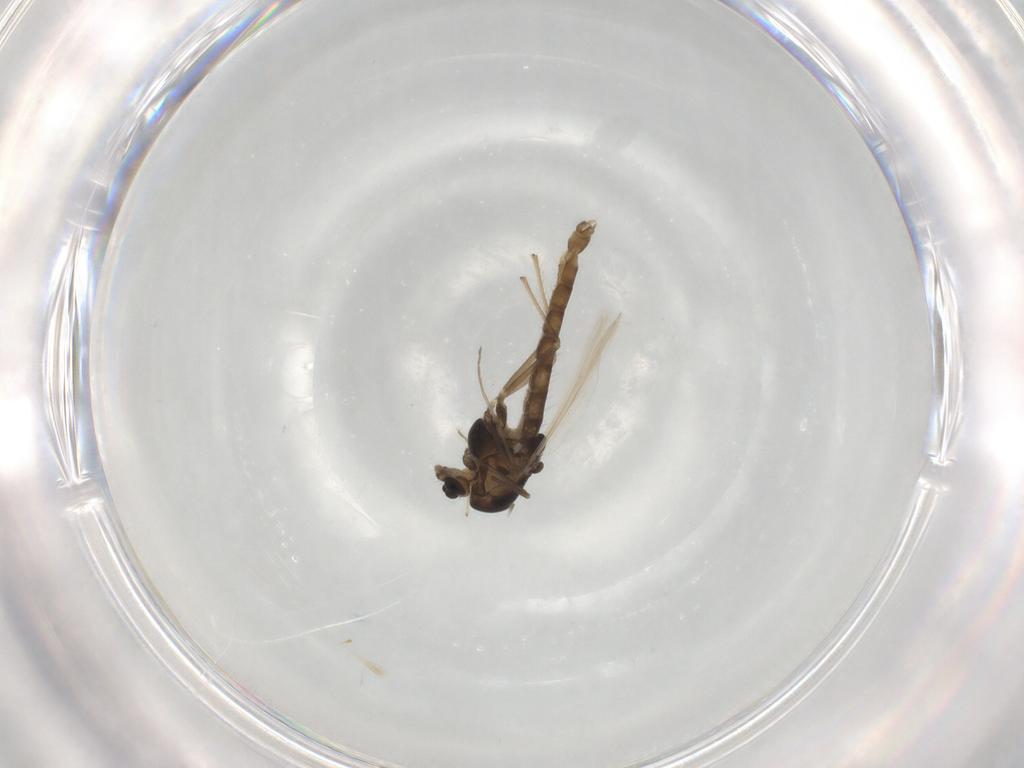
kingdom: Animalia
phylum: Arthropoda
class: Insecta
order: Diptera
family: Chironomidae
